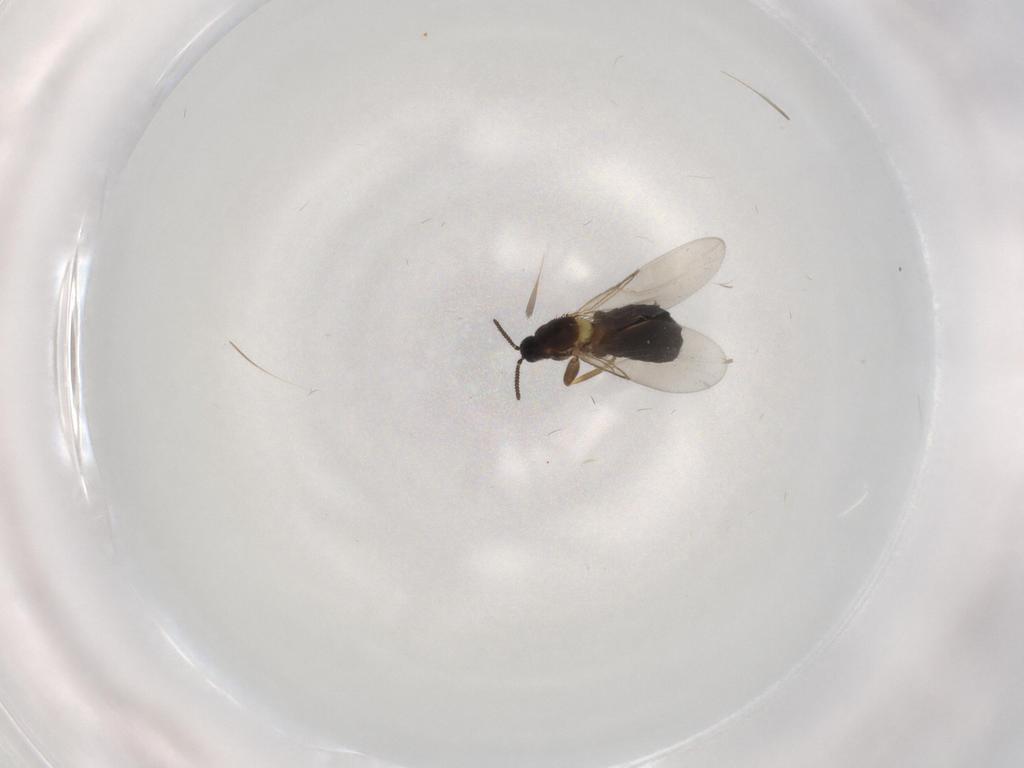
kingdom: Animalia
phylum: Arthropoda
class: Insecta
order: Diptera
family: Scatopsidae
